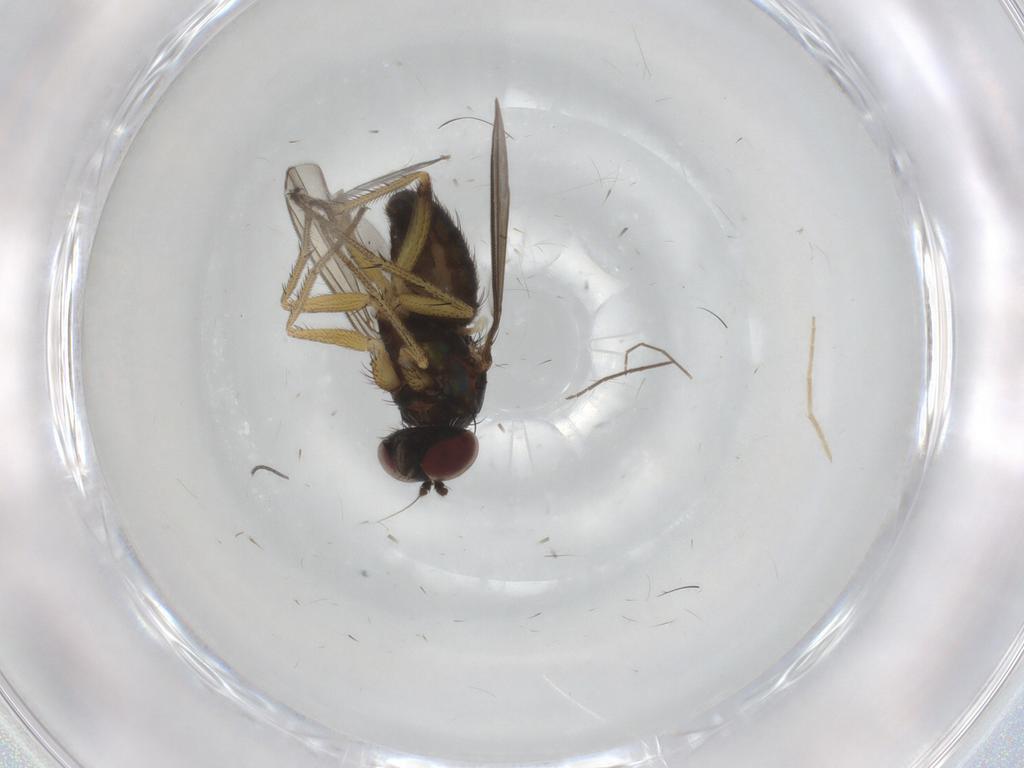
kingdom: Animalia
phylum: Arthropoda
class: Insecta
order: Diptera
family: Dolichopodidae
